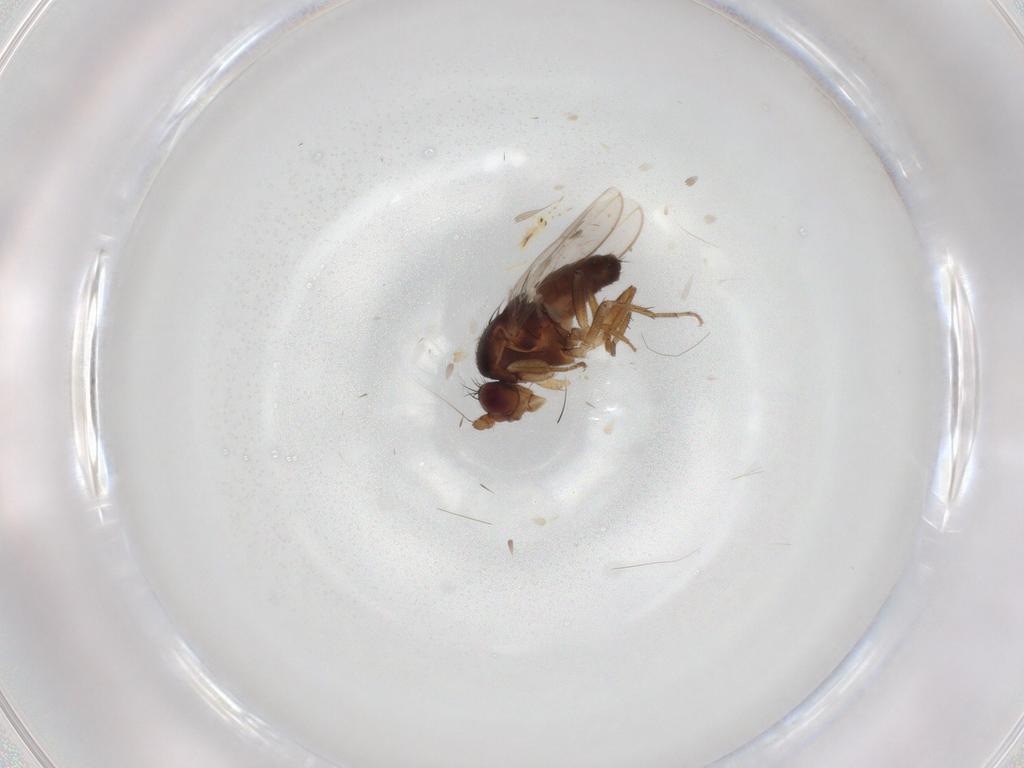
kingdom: Animalia
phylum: Arthropoda
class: Insecta
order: Diptera
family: Sphaeroceridae
